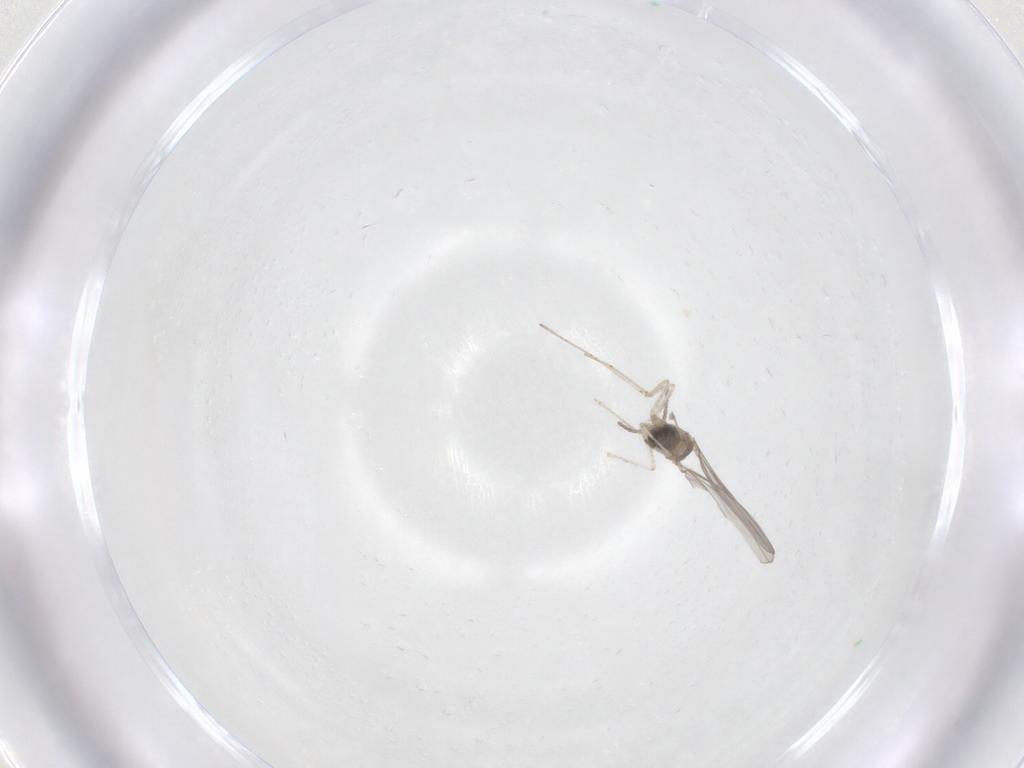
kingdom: Animalia
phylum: Arthropoda
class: Insecta
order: Diptera
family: Cecidomyiidae
